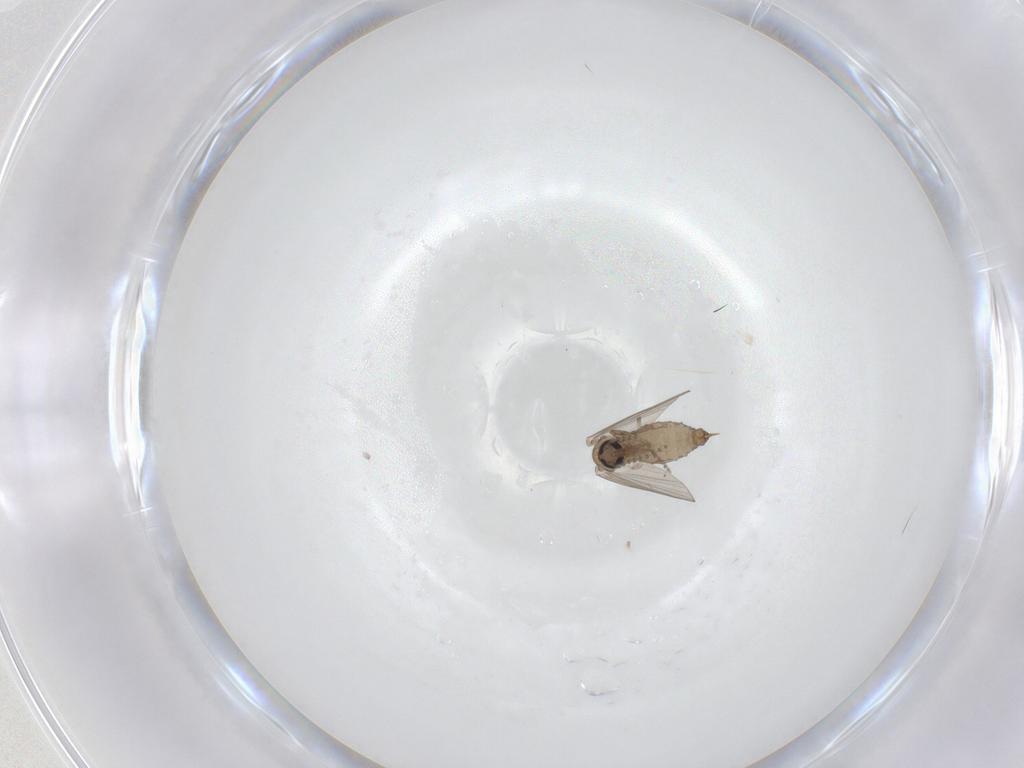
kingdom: Animalia
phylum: Arthropoda
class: Insecta
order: Diptera
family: Psychodidae
